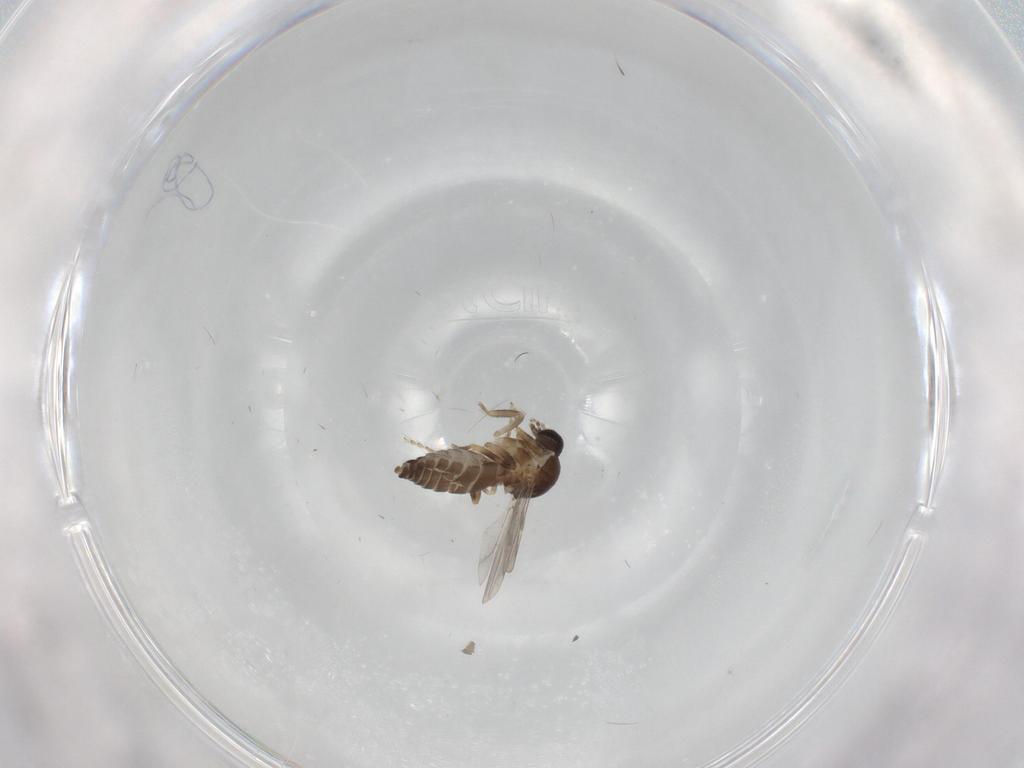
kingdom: Animalia
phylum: Arthropoda
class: Insecta
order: Diptera
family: Ceratopogonidae
